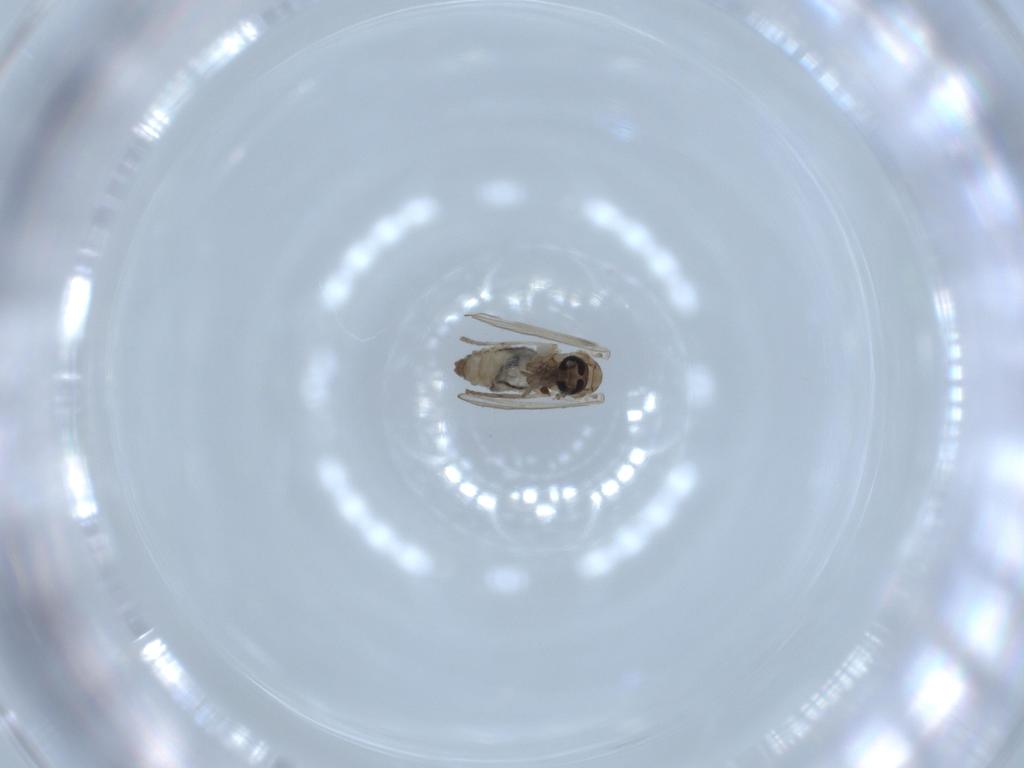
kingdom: Animalia
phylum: Arthropoda
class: Insecta
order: Diptera
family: Psychodidae
